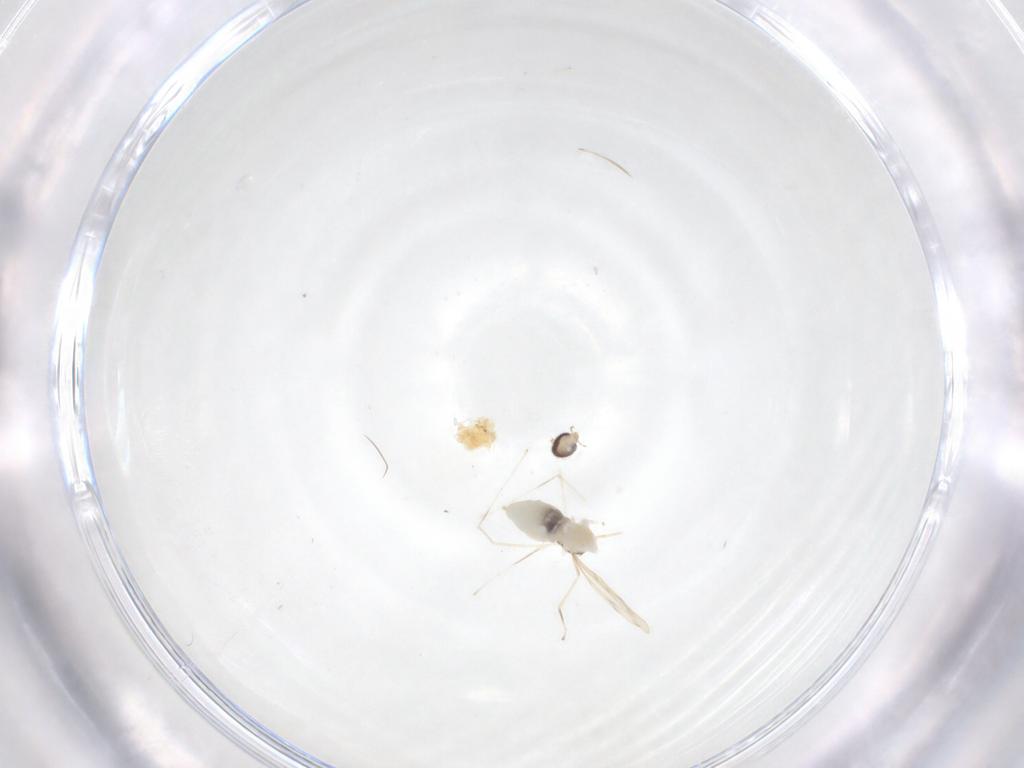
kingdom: Animalia
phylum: Arthropoda
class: Insecta
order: Diptera
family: Cecidomyiidae
